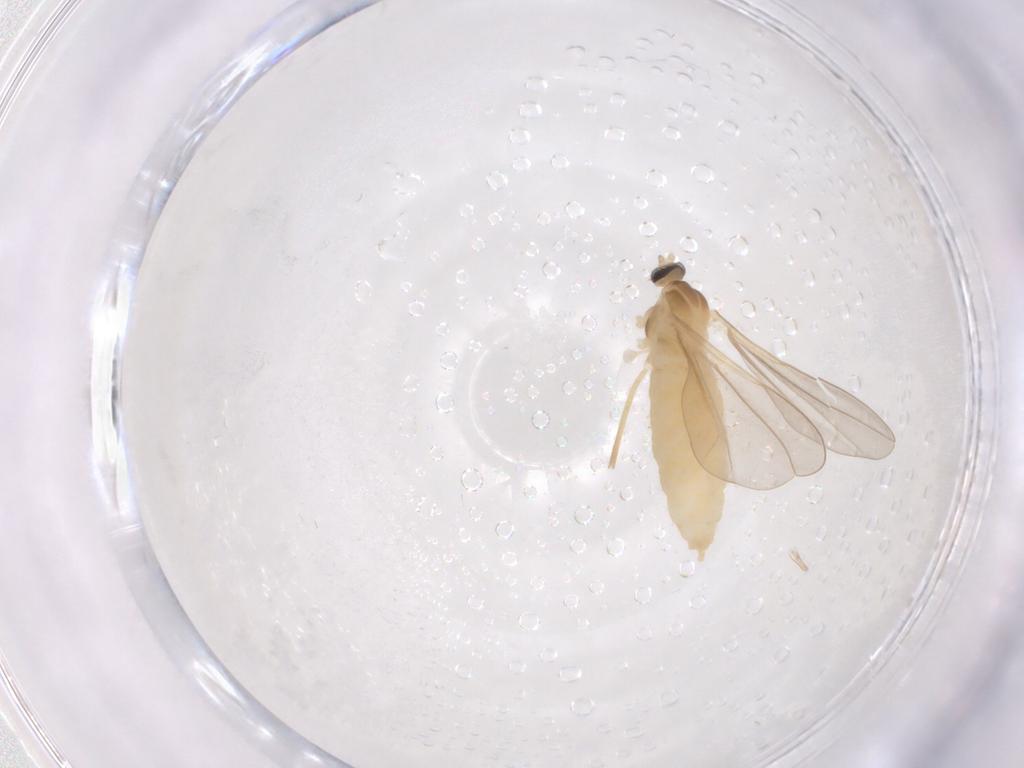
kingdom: Animalia
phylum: Arthropoda
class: Insecta
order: Diptera
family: Cecidomyiidae
